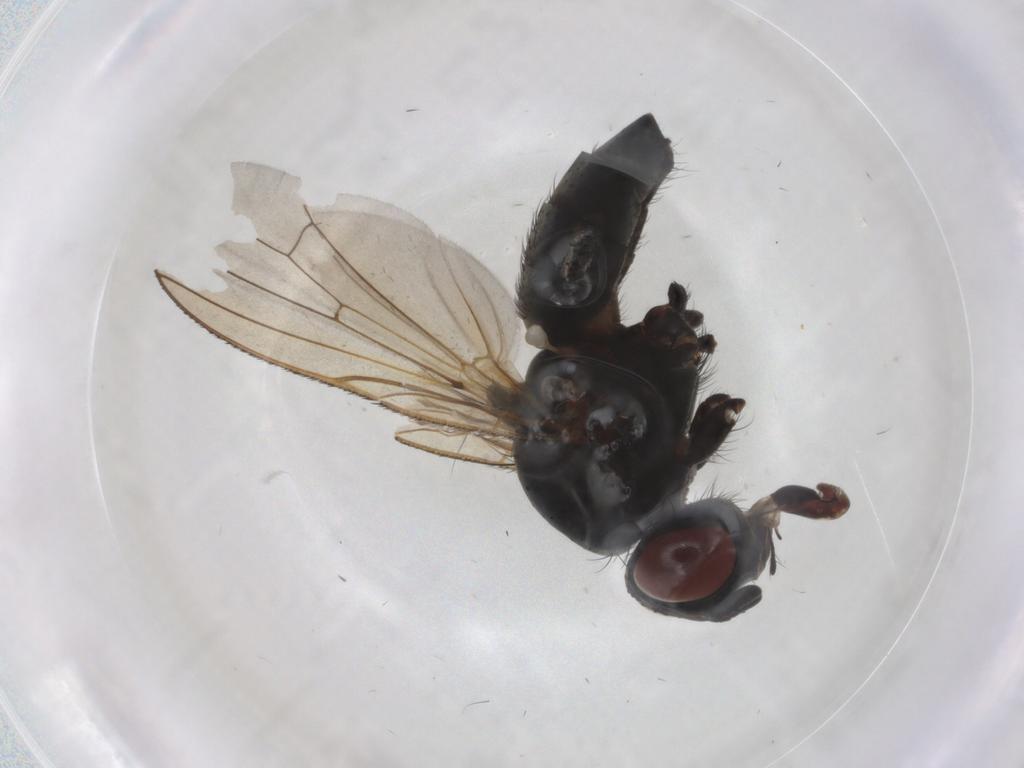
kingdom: Animalia
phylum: Arthropoda
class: Insecta
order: Diptera
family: Anthomyiidae
